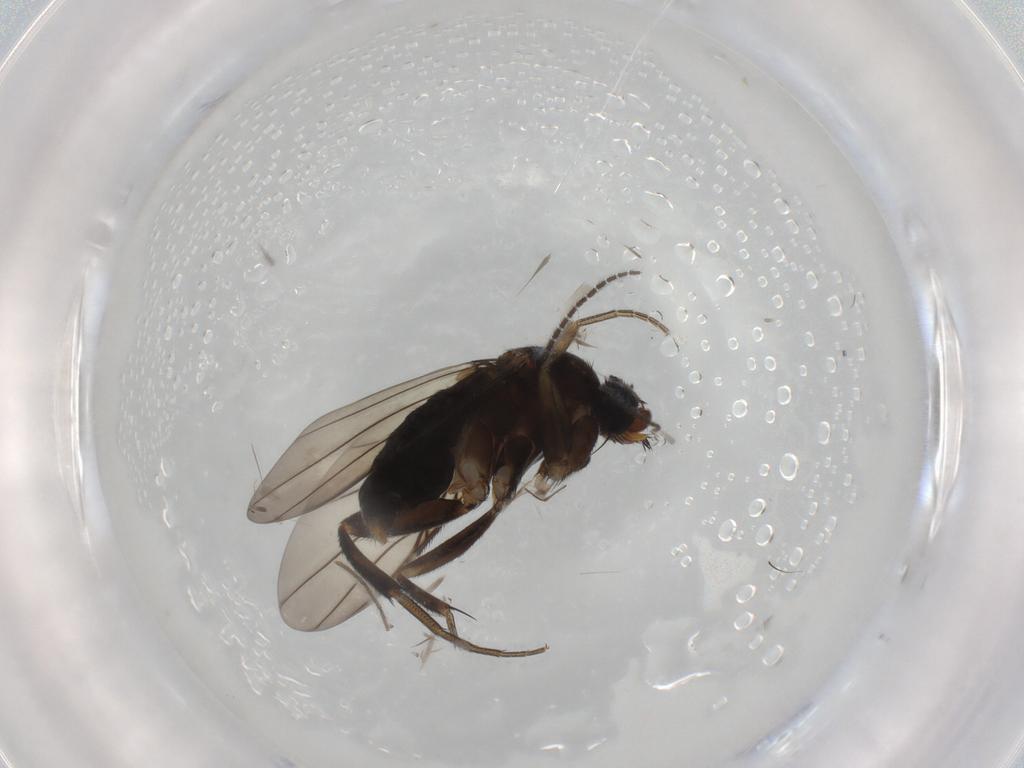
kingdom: Animalia
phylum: Arthropoda
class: Insecta
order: Diptera
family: Phoridae
